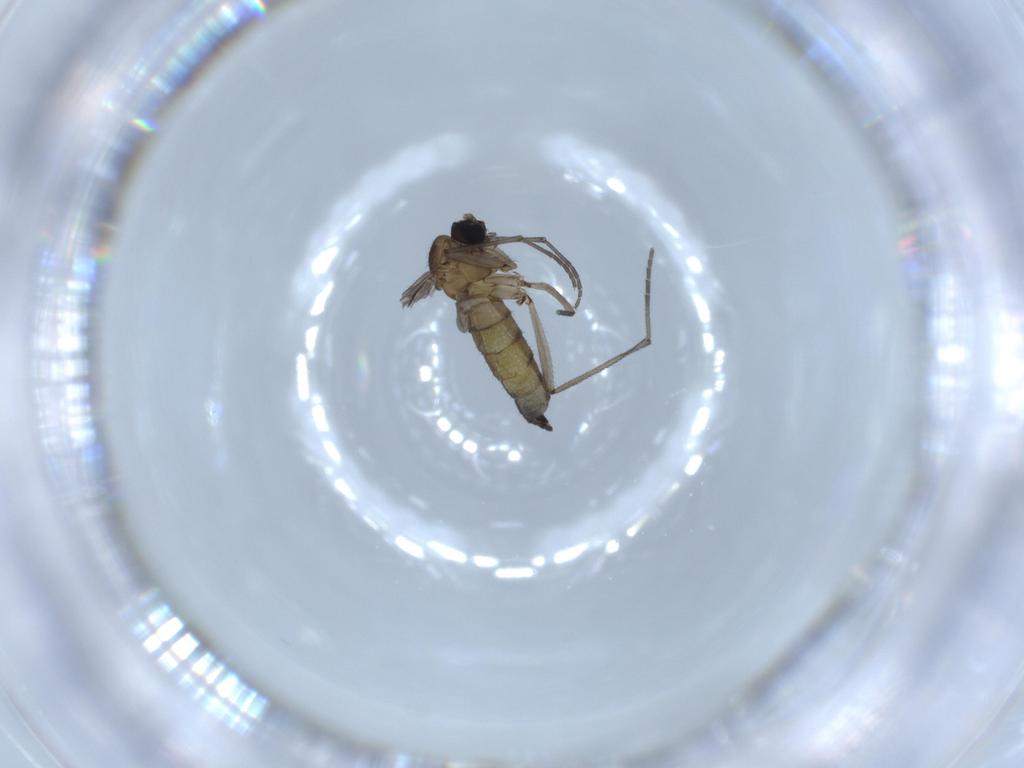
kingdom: Animalia
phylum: Arthropoda
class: Insecta
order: Diptera
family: Sciaridae
